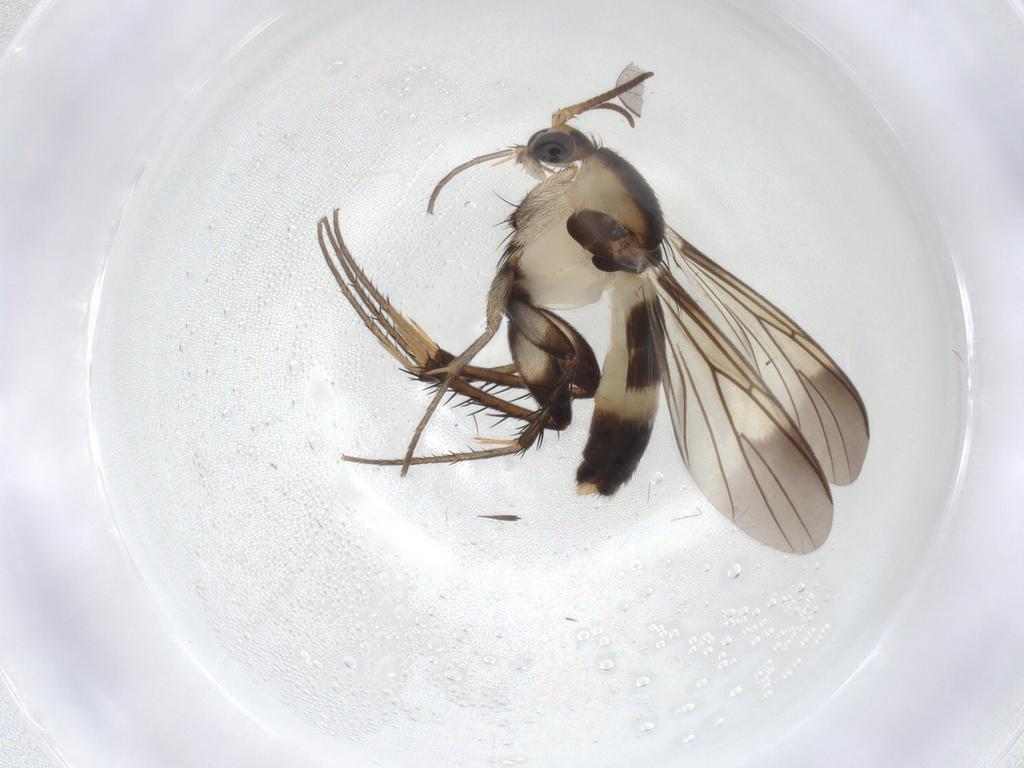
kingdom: Animalia
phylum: Arthropoda
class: Insecta
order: Diptera
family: Mycetophilidae
